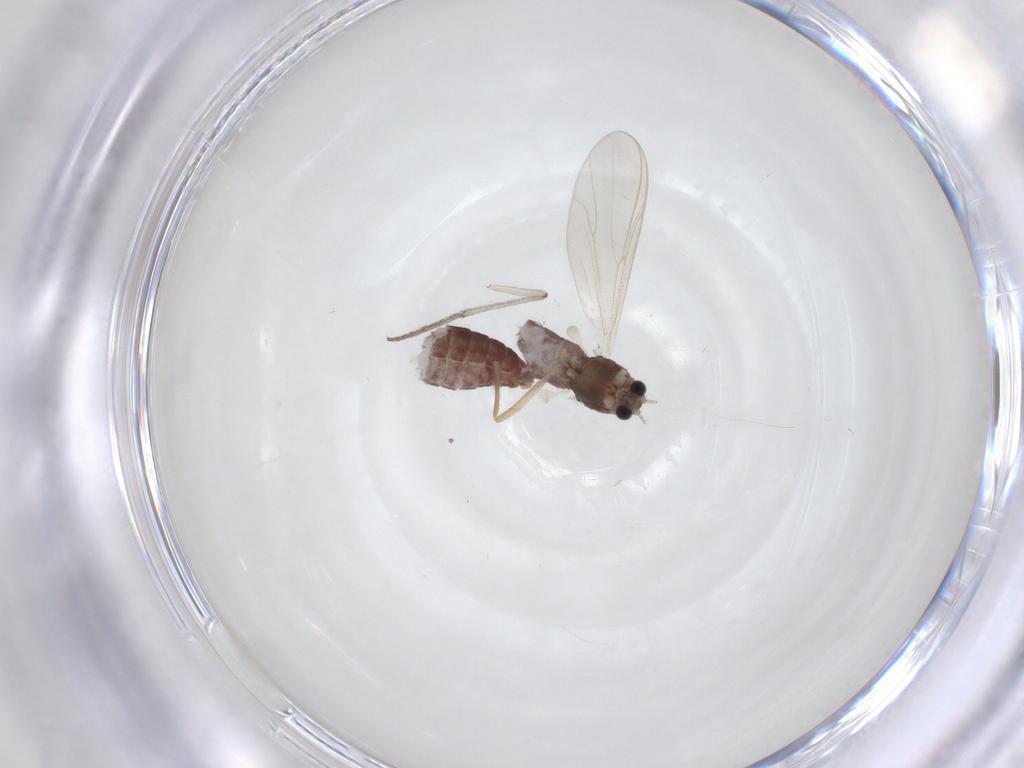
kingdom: Animalia
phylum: Arthropoda
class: Insecta
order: Diptera
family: Chironomidae
